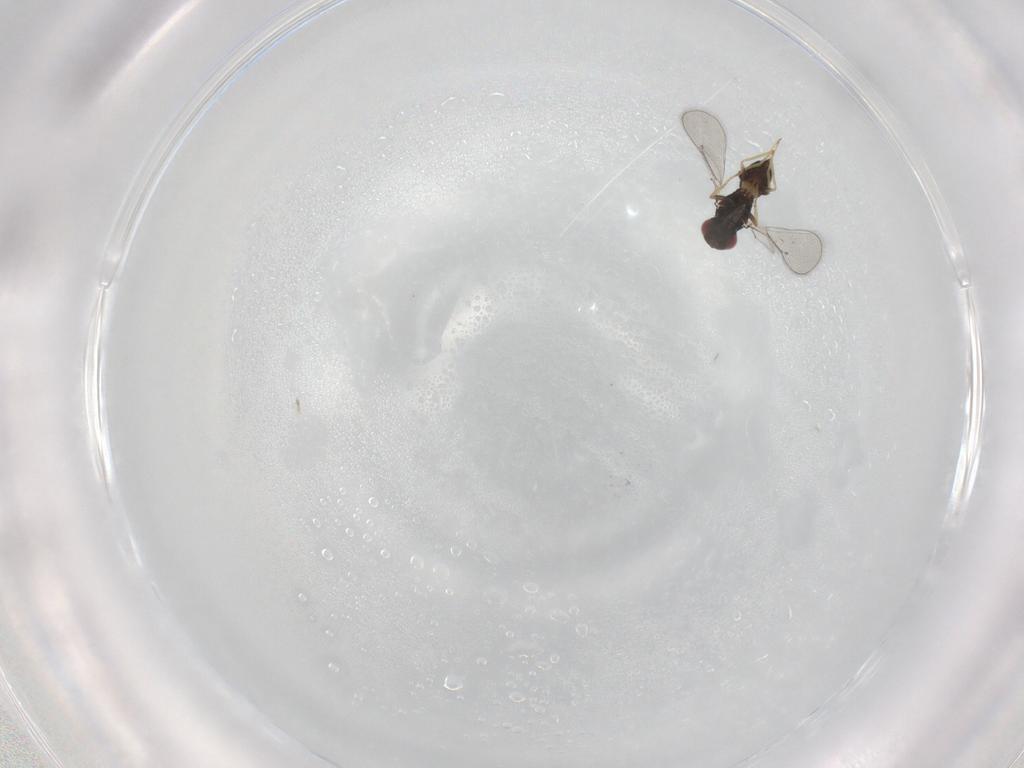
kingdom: Animalia
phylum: Arthropoda
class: Insecta
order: Hymenoptera
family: Eulophidae
